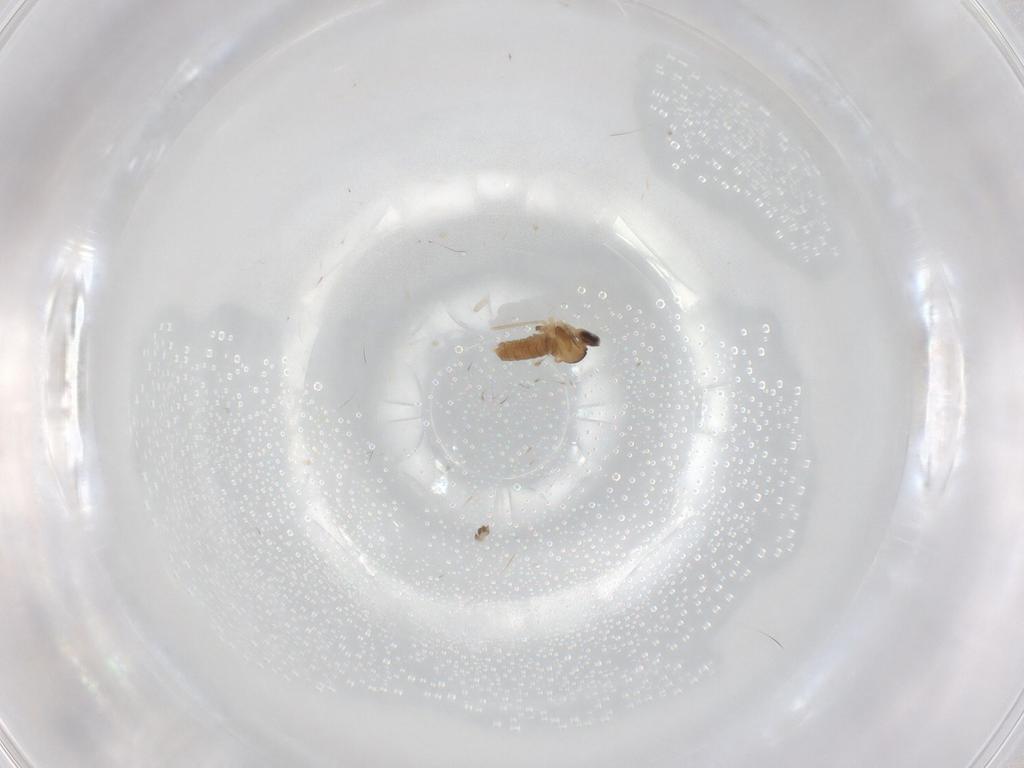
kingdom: Animalia
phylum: Arthropoda
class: Insecta
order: Diptera
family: Cecidomyiidae
